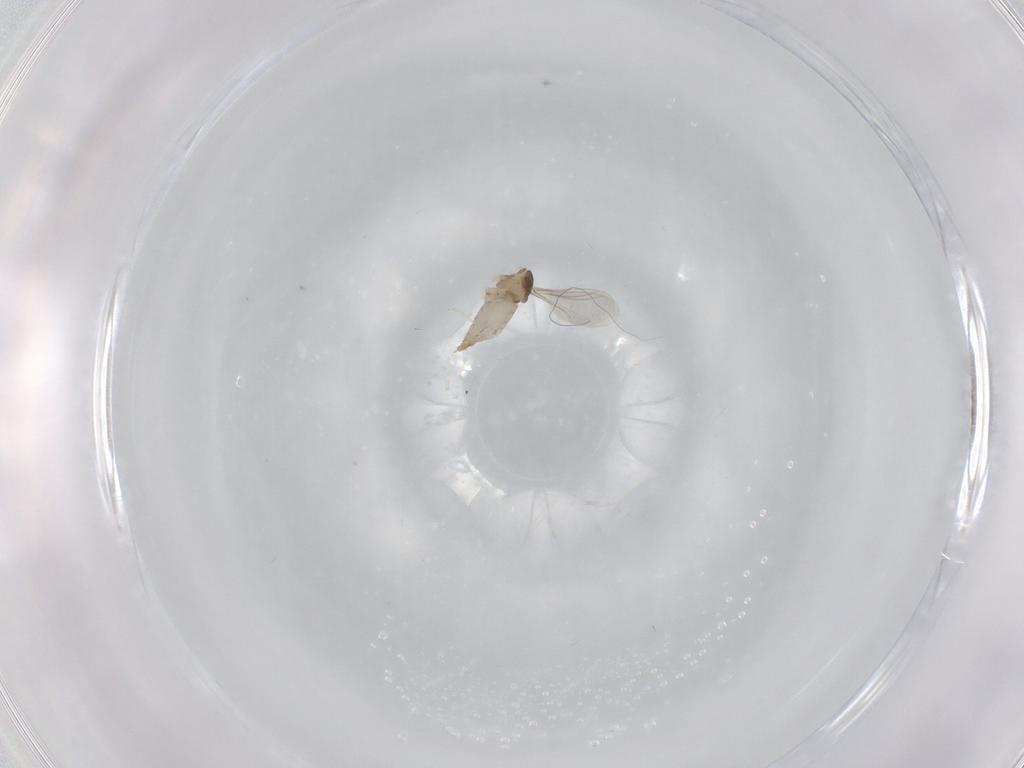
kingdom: Animalia
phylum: Arthropoda
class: Insecta
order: Diptera
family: Cecidomyiidae
